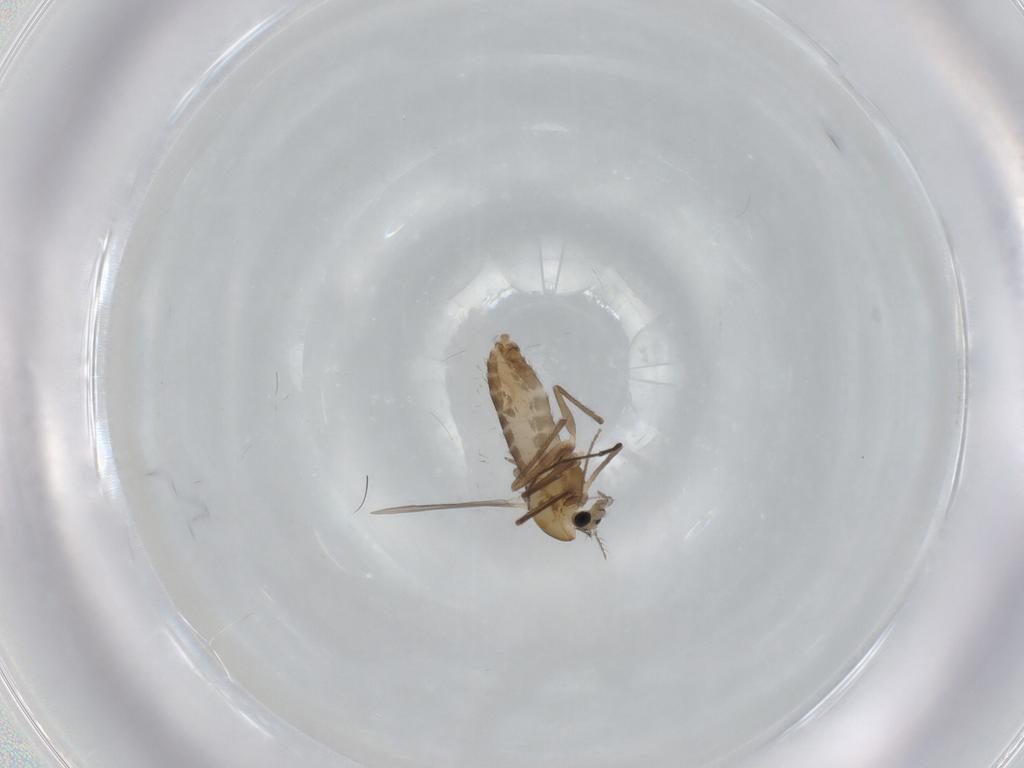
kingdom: Animalia
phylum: Arthropoda
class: Insecta
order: Diptera
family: Chironomidae
